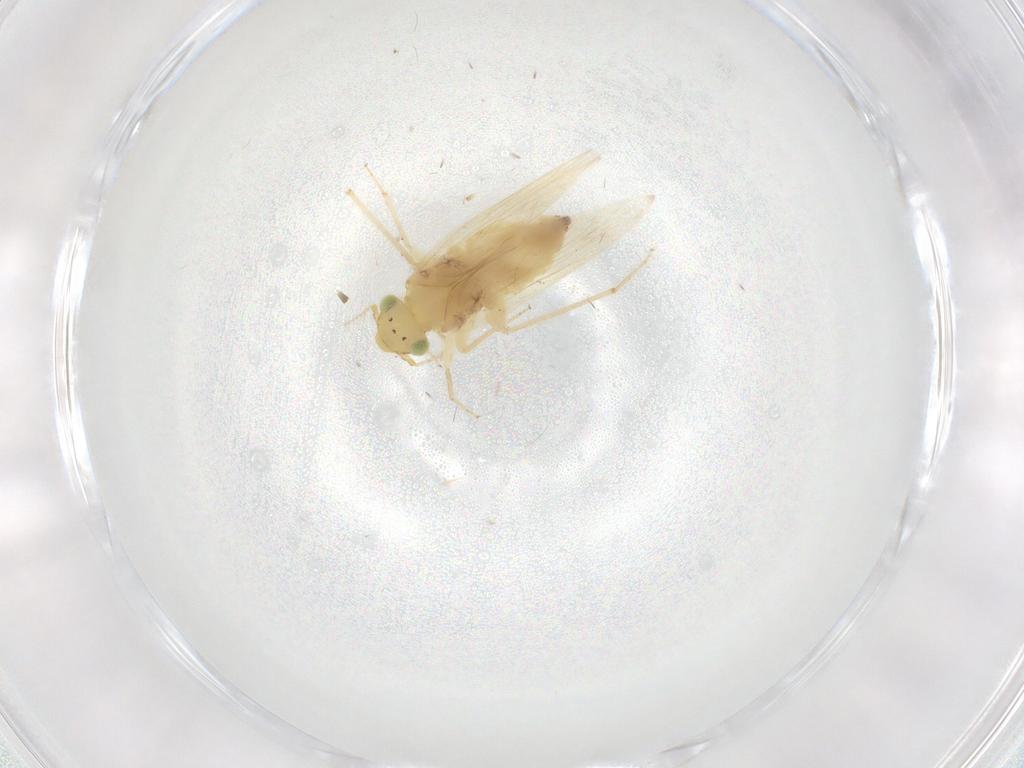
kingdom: Animalia
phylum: Arthropoda
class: Insecta
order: Psocodea
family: Lepidopsocidae
